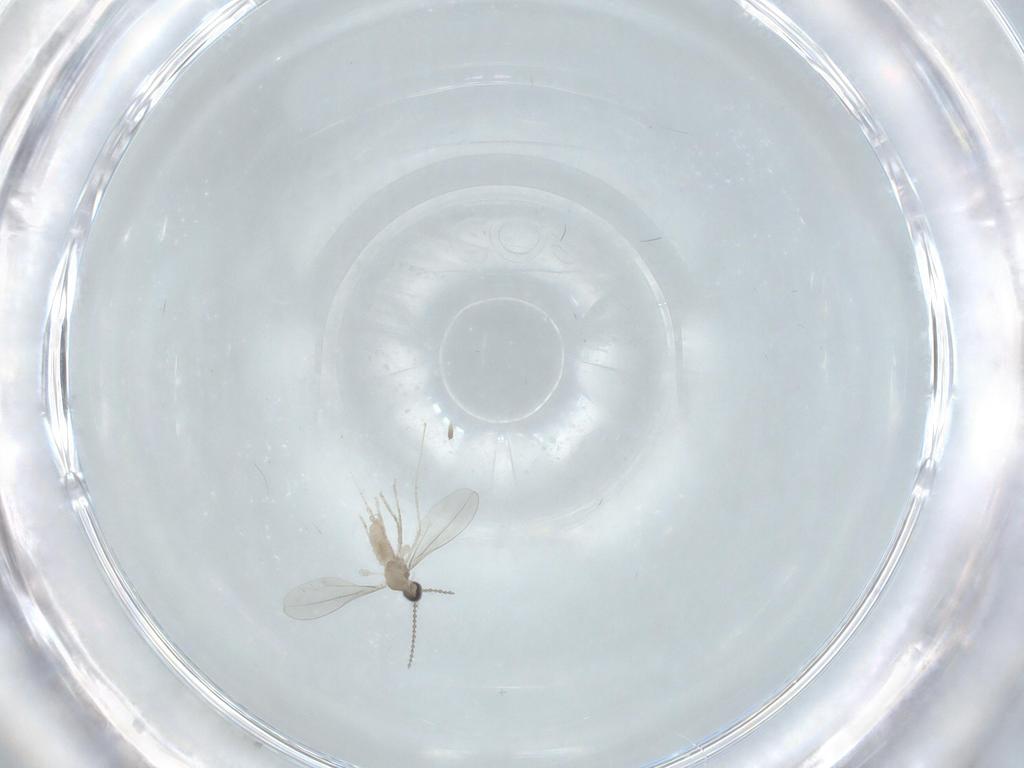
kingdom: Animalia
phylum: Arthropoda
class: Insecta
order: Diptera
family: Cecidomyiidae
